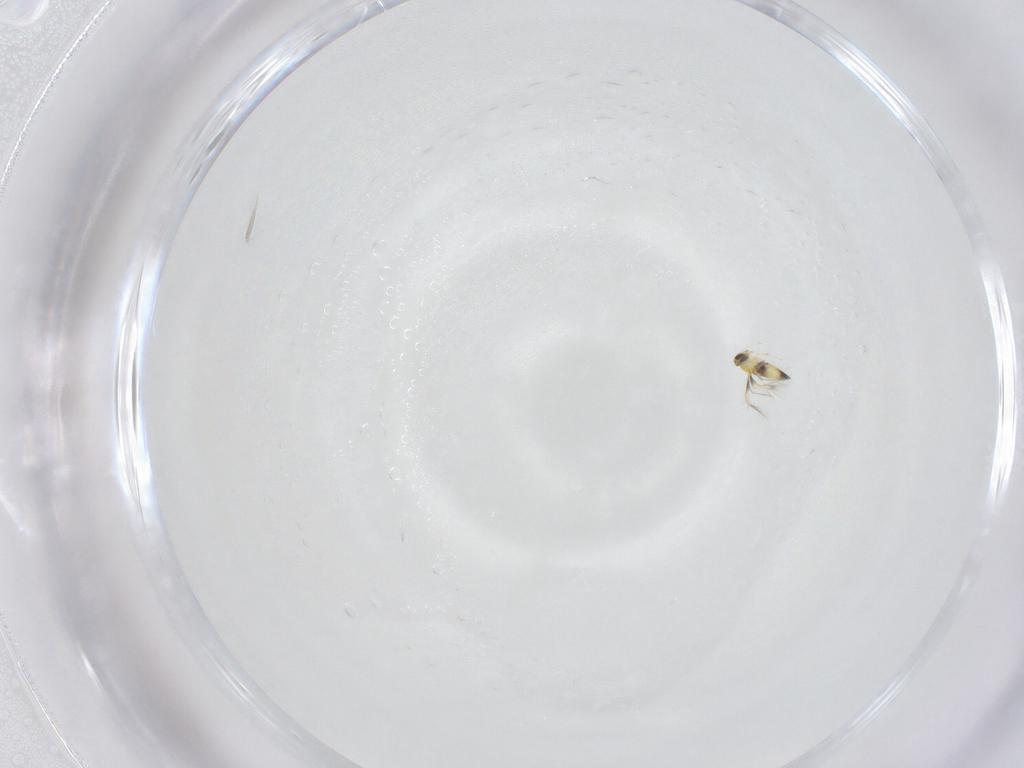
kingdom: Animalia
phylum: Arthropoda
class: Insecta
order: Hymenoptera
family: Trichogrammatidae
